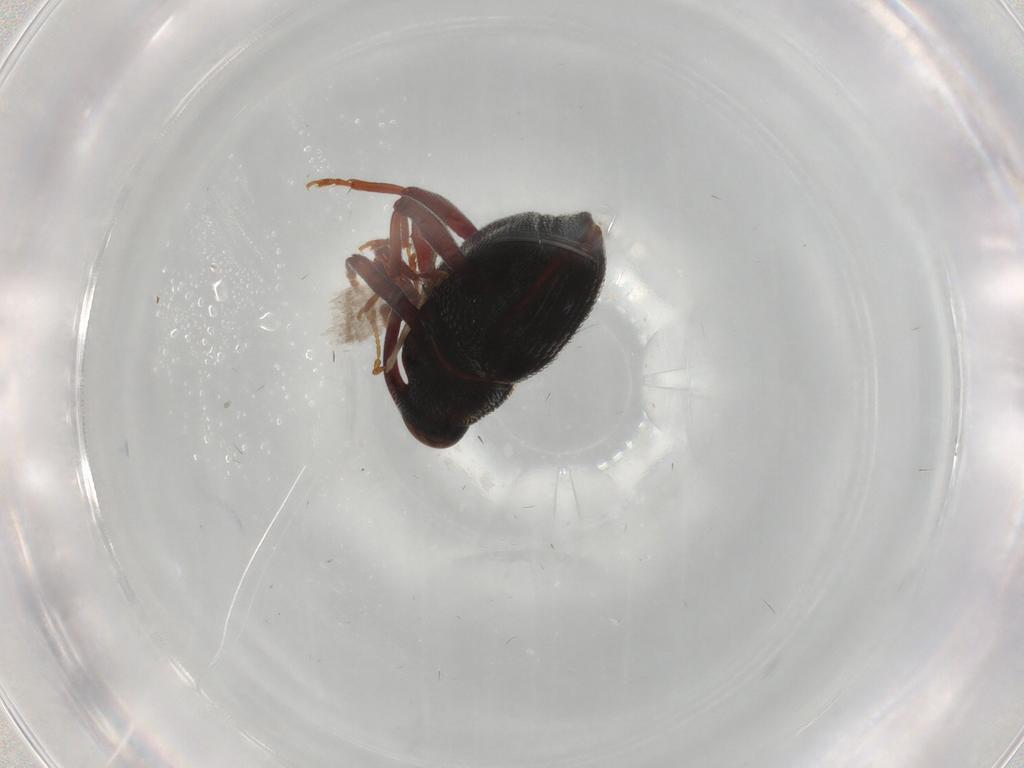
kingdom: Animalia
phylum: Arthropoda
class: Insecta
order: Coleoptera
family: Curculionidae
